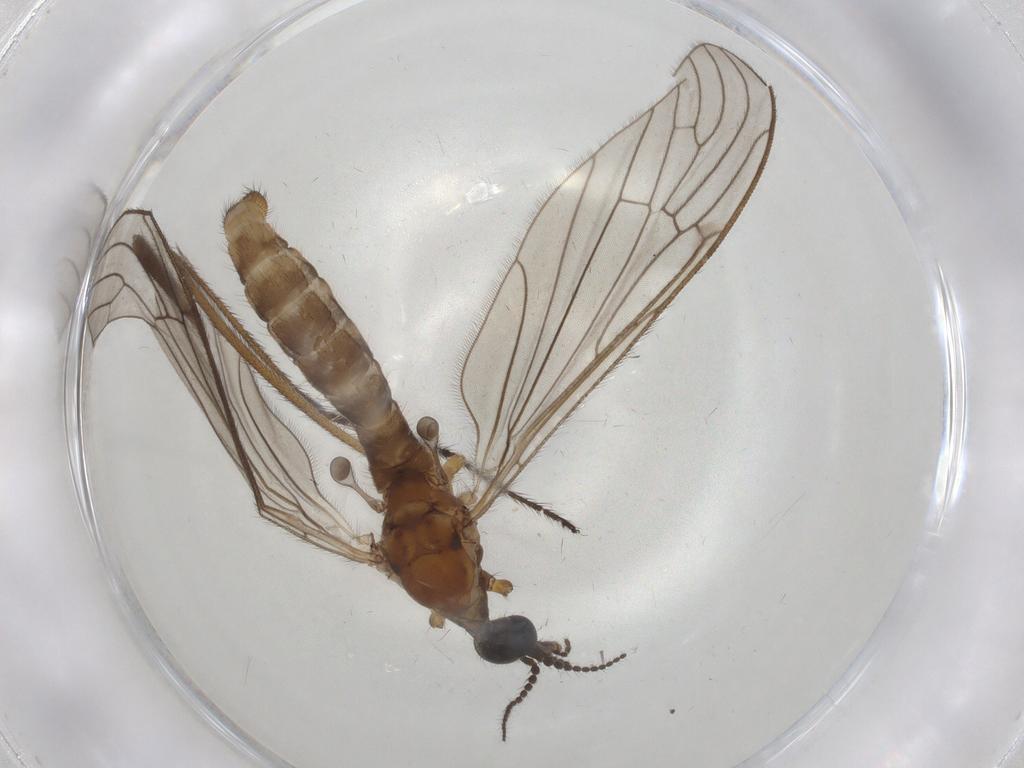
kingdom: Animalia
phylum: Arthropoda
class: Insecta
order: Diptera
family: Limoniidae
